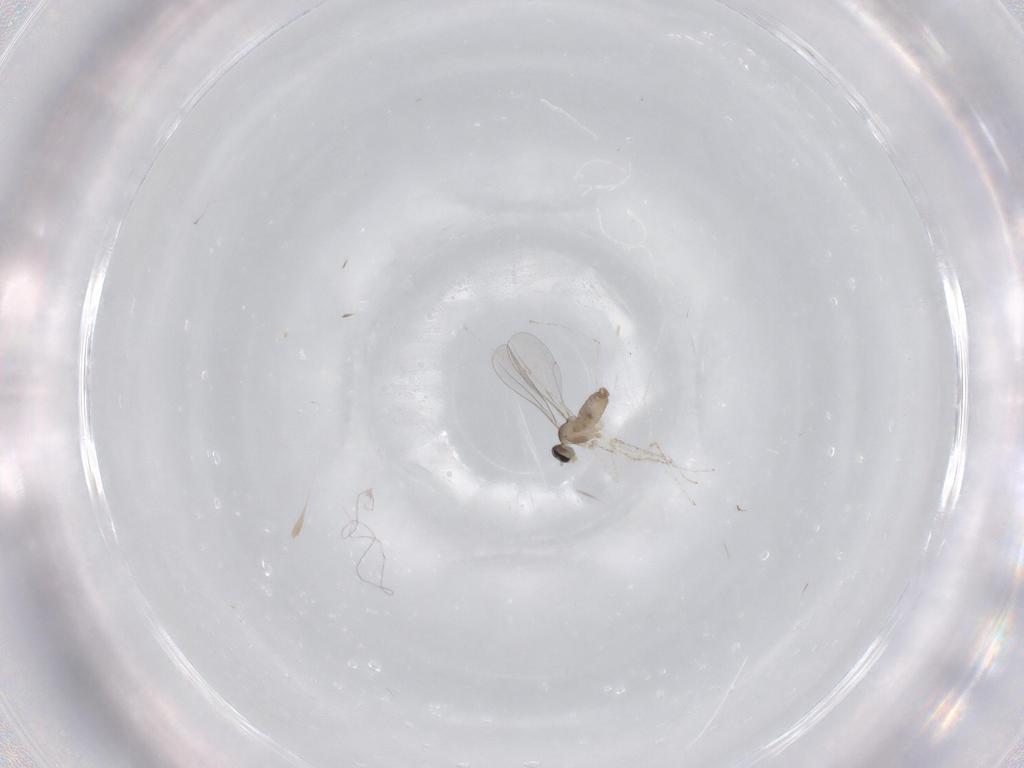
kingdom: Animalia
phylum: Arthropoda
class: Insecta
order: Diptera
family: Cecidomyiidae
